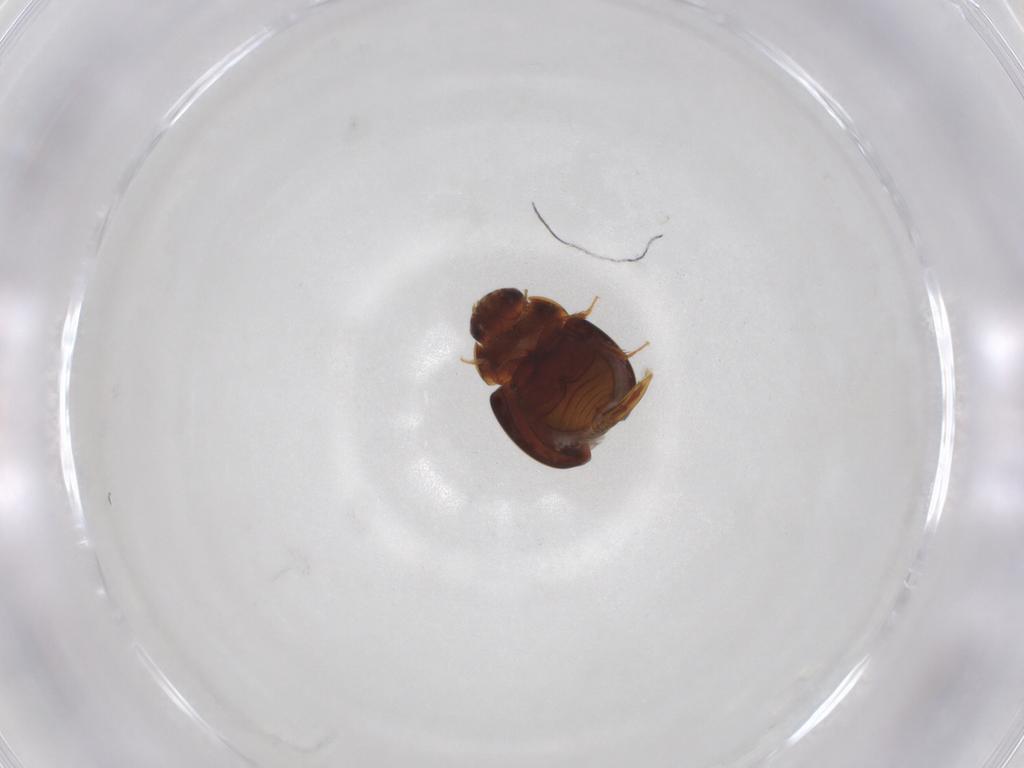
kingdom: Animalia
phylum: Arthropoda
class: Insecta
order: Coleoptera
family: Leiodidae
